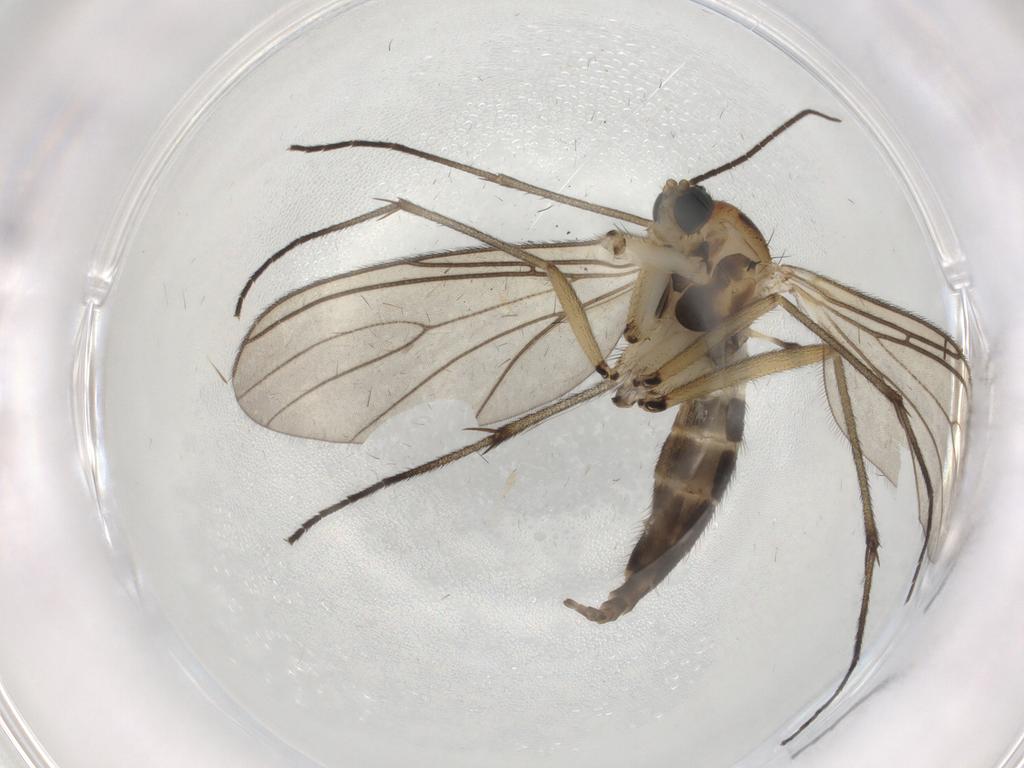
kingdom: Animalia
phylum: Arthropoda
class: Insecta
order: Diptera
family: Sciaridae
